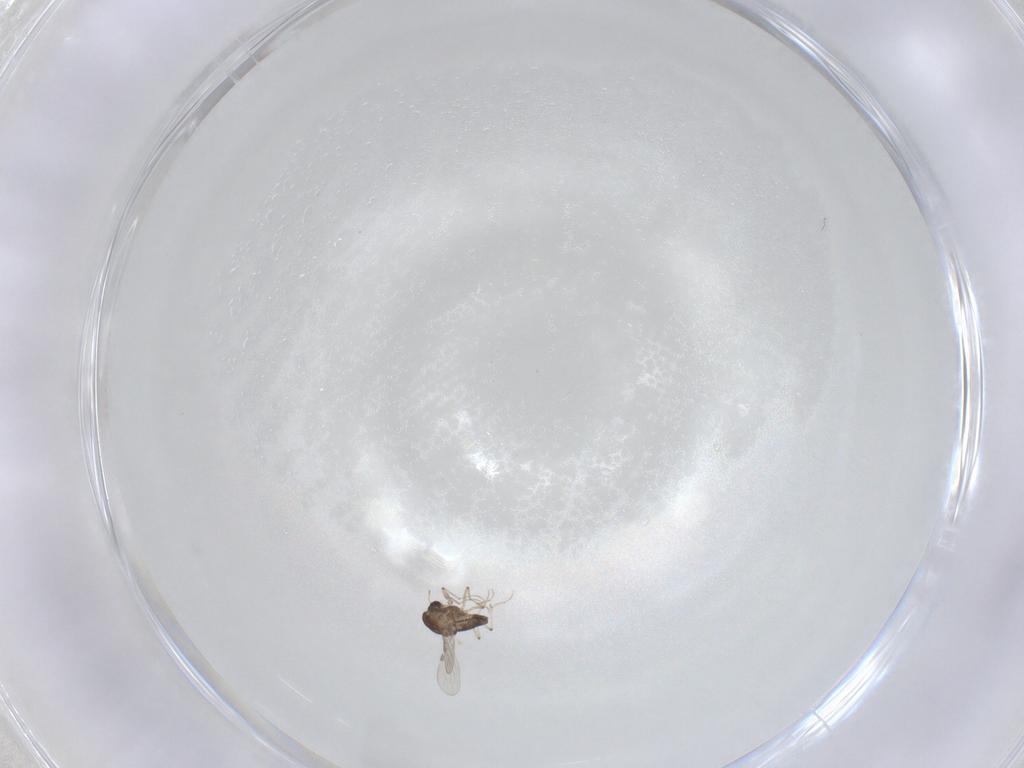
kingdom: Animalia
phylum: Arthropoda
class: Insecta
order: Diptera
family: Chironomidae
